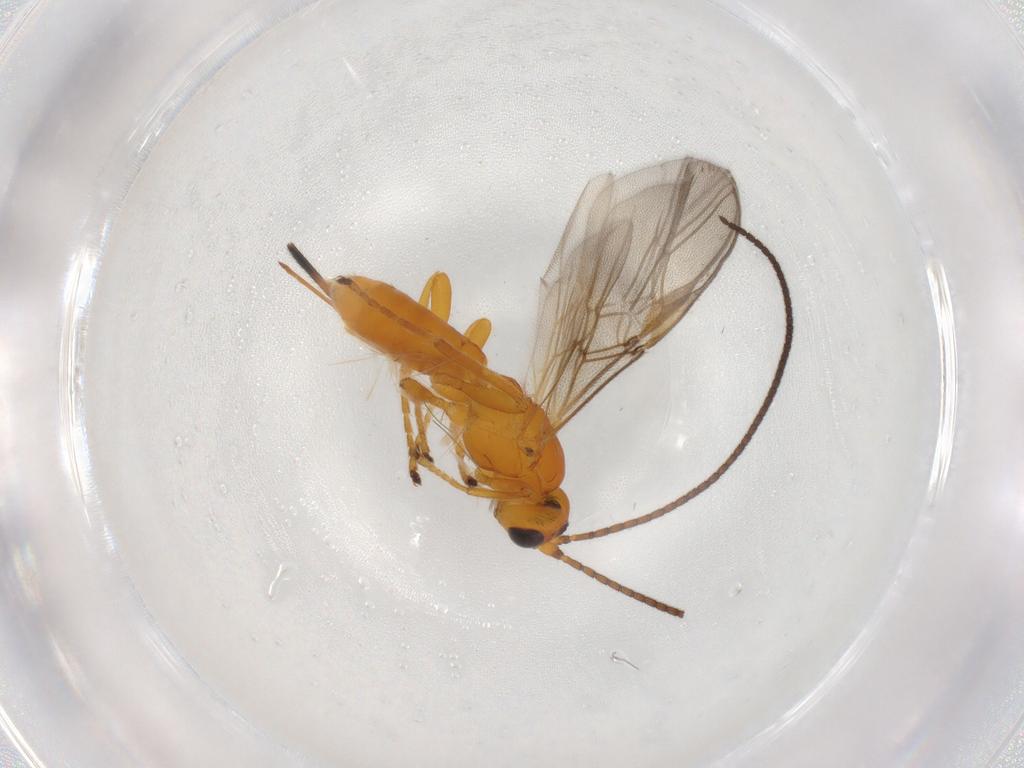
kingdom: Animalia
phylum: Arthropoda
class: Insecta
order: Hymenoptera
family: Braconidae
